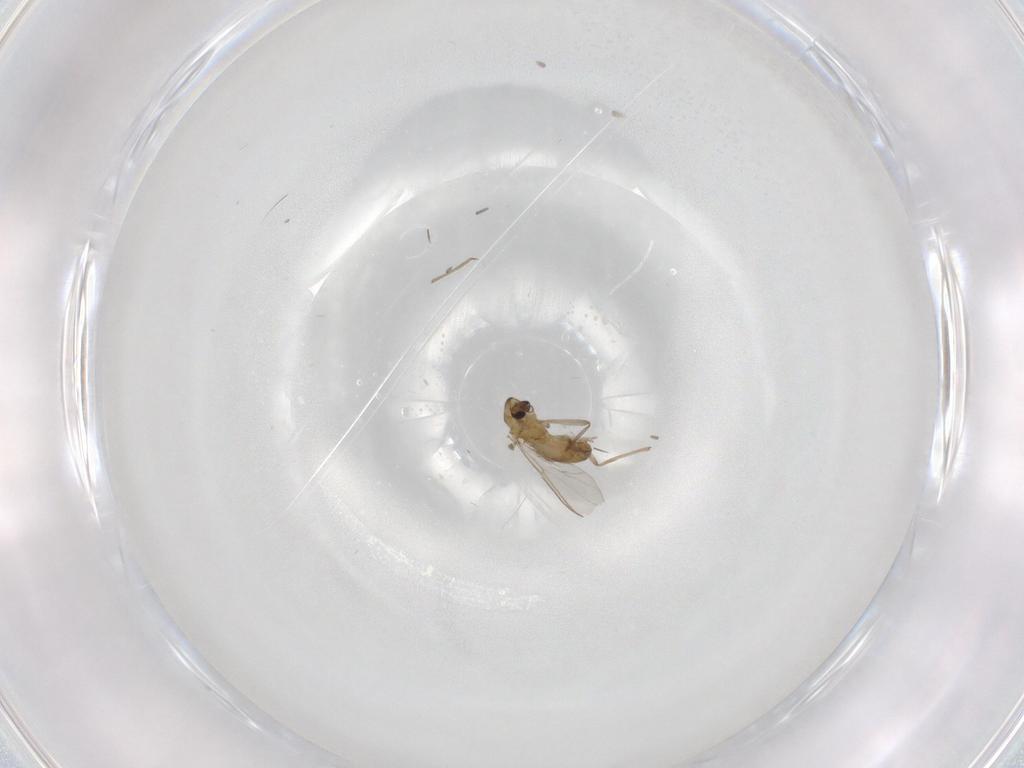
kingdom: Animalia
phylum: Arthropoda
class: Insecta
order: Diptera
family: Chironomidae
